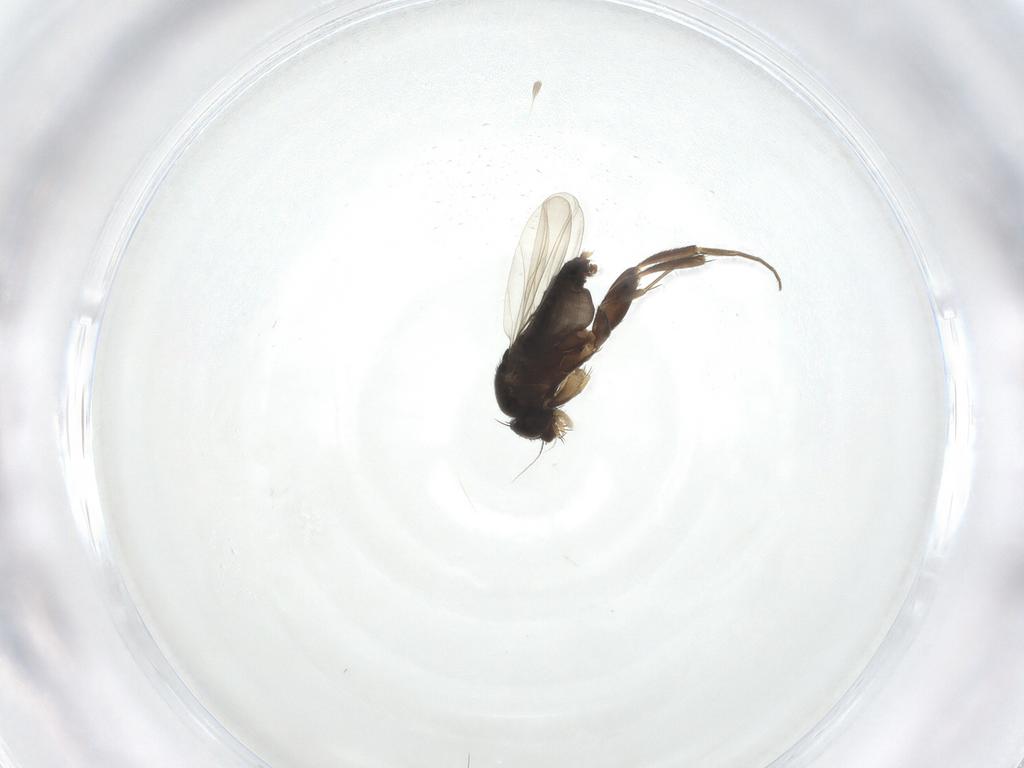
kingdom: Animalia
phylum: Arthropoda
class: Insecta
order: Diptera
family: Phoridae
